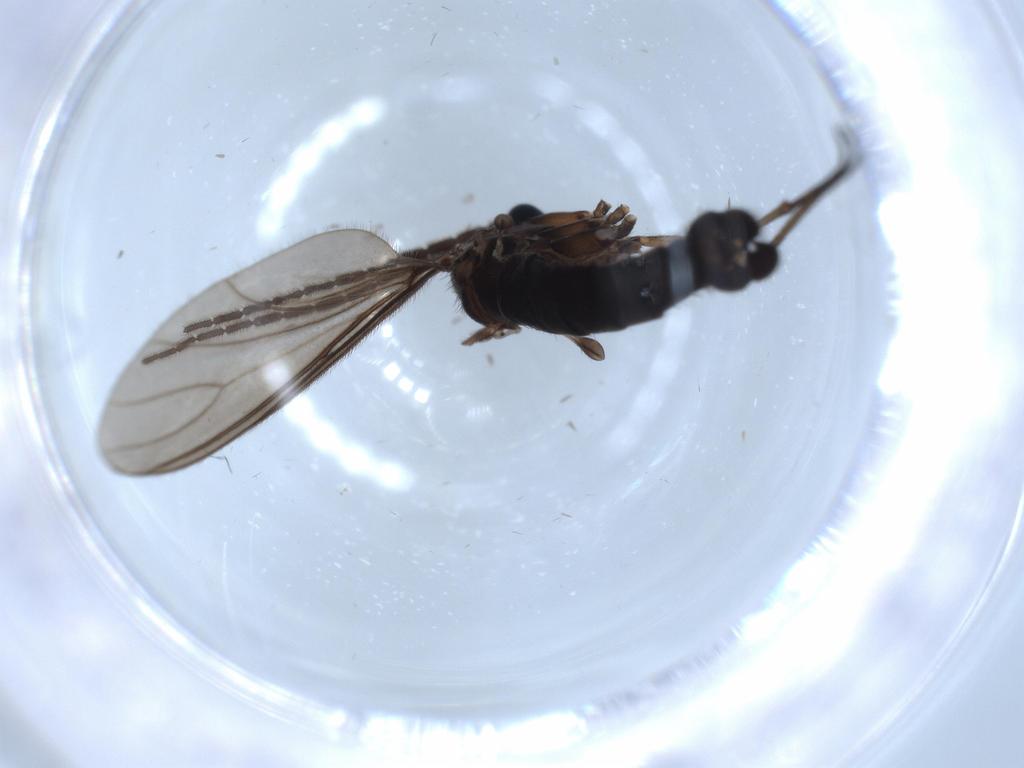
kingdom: Animalia
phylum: Arthropoda
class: Insecta
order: Diptera
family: Sciaridae
